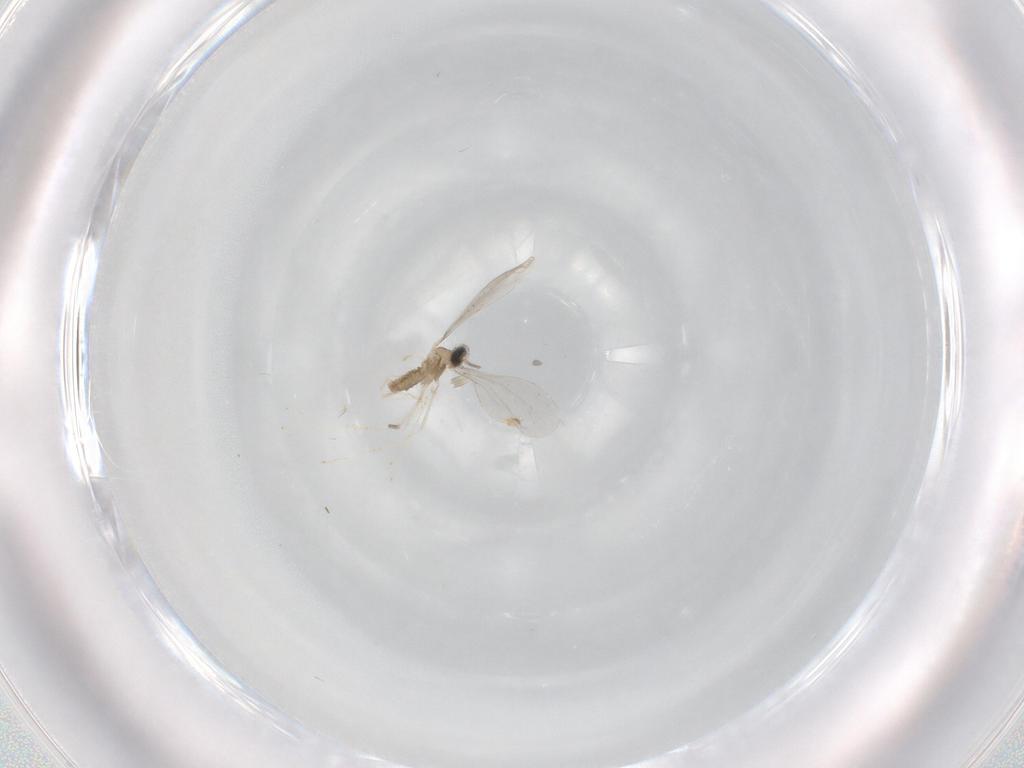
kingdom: Animalia
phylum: Arthropoda
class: Insecta
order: Diptera
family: Cecidomyiidae
